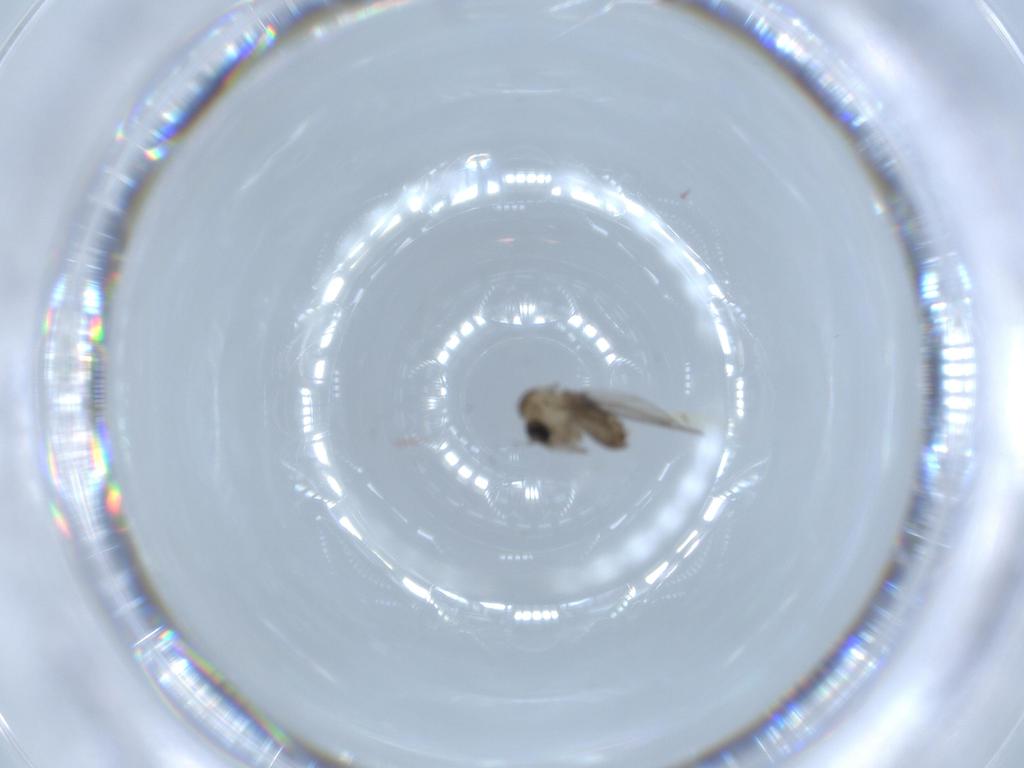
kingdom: Animalia
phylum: Arthropoda
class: Insecta
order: Diptera
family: Psychodidae
